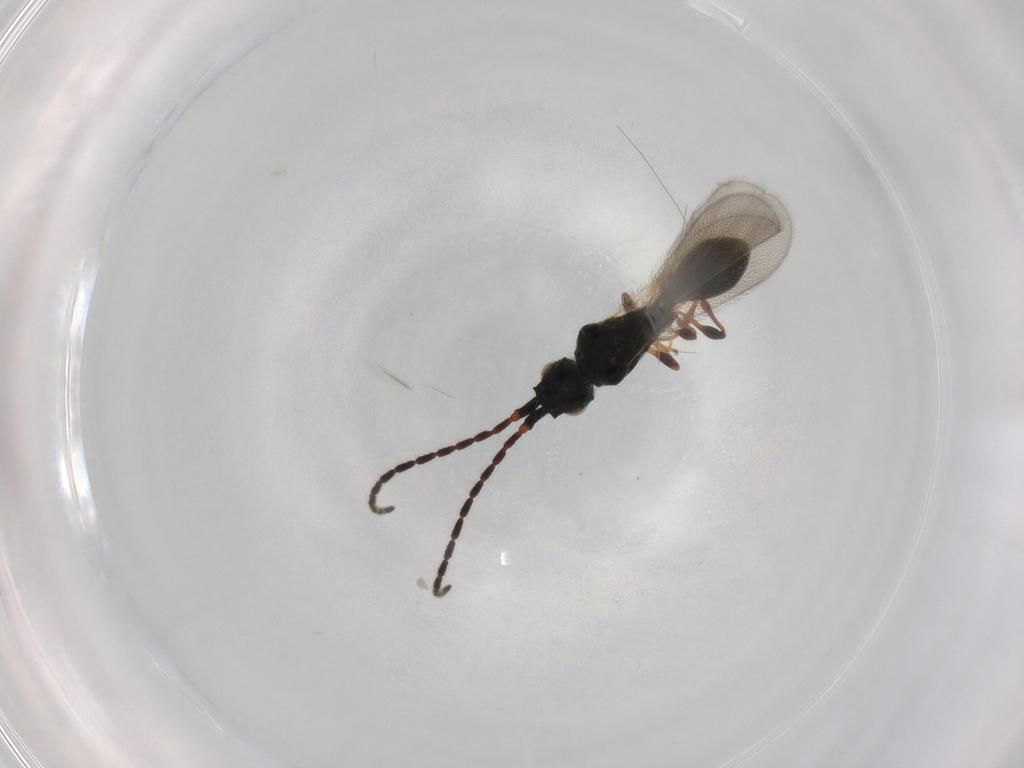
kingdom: Animalia
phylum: Arthropoda
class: Insecta
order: Hymenoptera
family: Diapriidae
